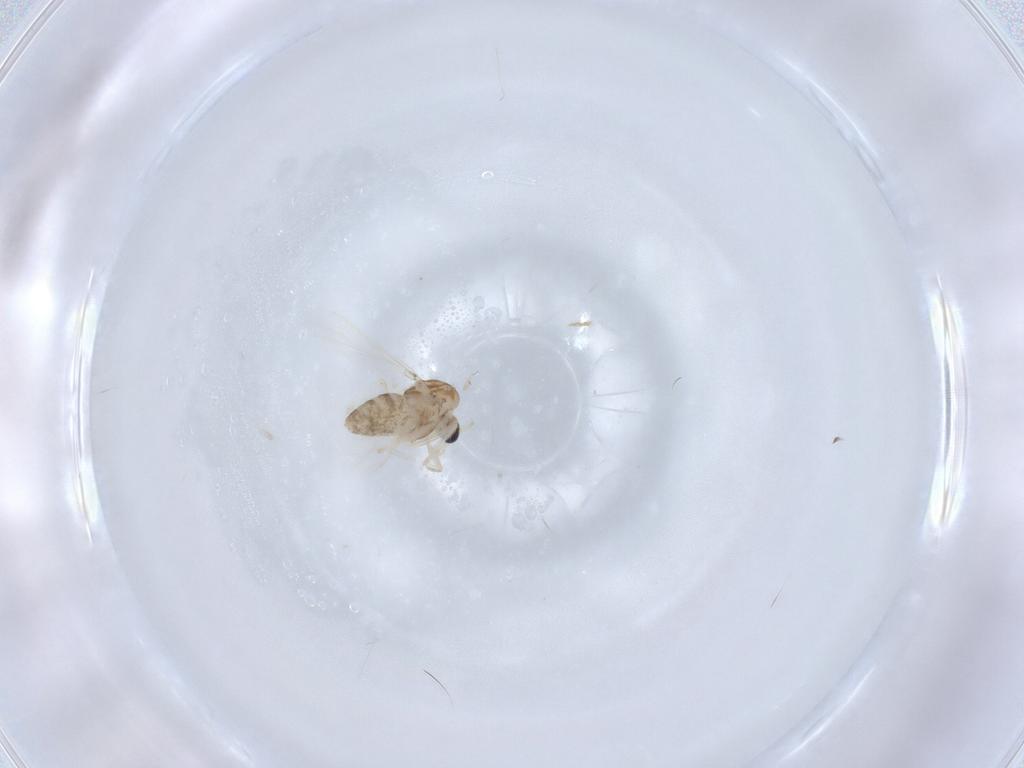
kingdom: Animalia
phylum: Arthropoda
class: Insecta
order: Diptera
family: Chironomidae
